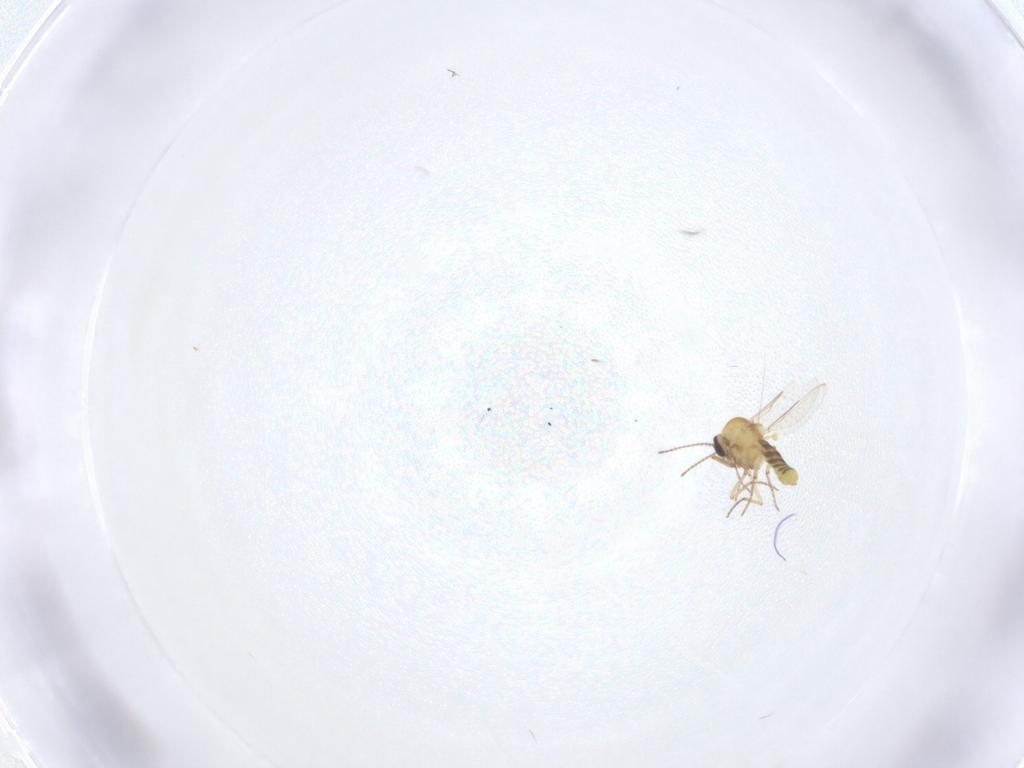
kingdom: Animalia
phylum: Arthropoda
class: Insecta
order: Diptera
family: Ceratopogonidae
